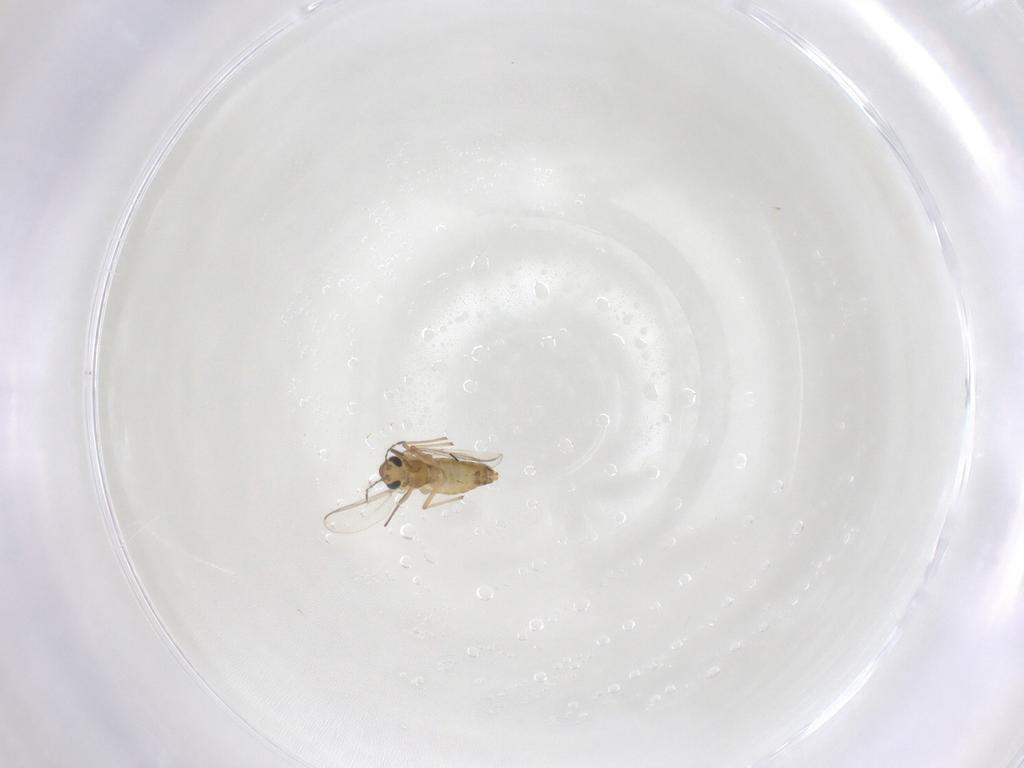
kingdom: Animalia
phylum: Arthropoda
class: Insecta
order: Diptera
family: Chironomidae
